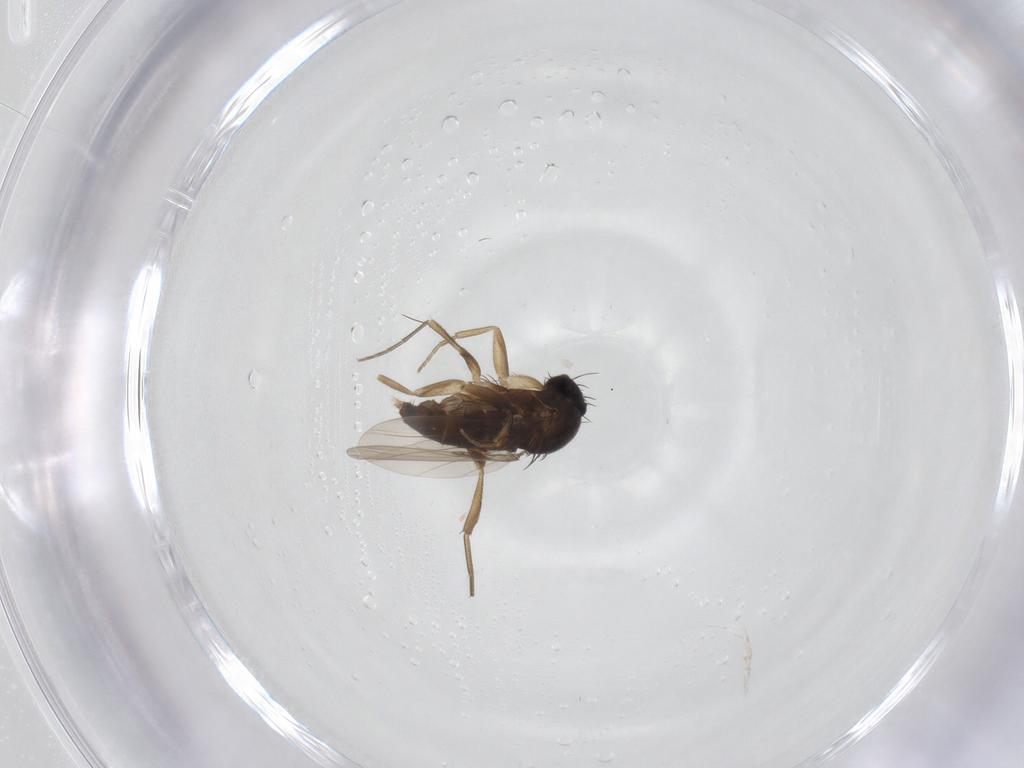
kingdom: Animalia
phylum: Arthropoda
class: Insecta
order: Diptera
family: Phoridae
